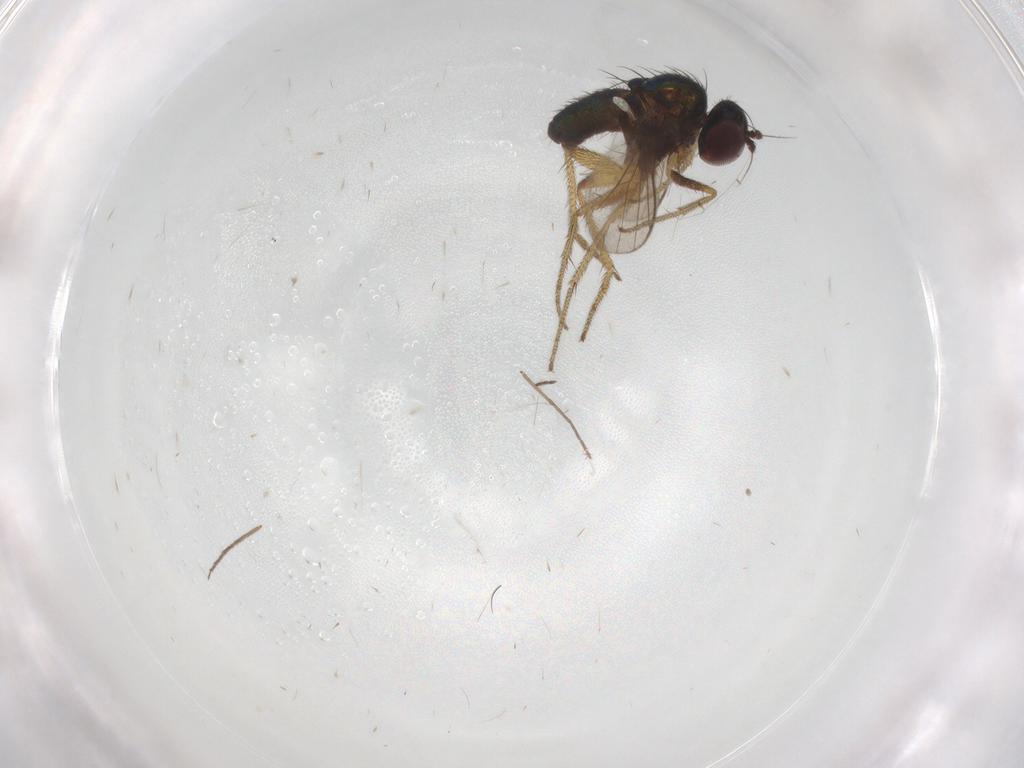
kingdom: Animalia
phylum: Arthropoda
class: Insecta
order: Diptera
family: Dolichopodidae
